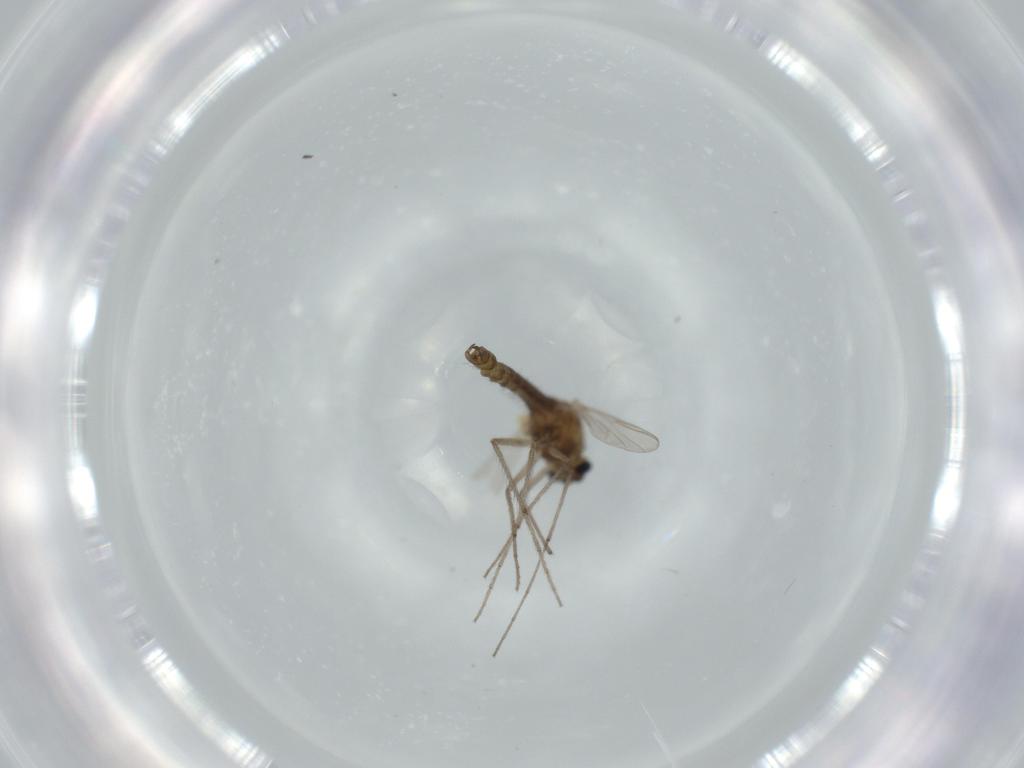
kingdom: Animalia
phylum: Arthropoda
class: Insecta
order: Diptera
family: Chironomidae
